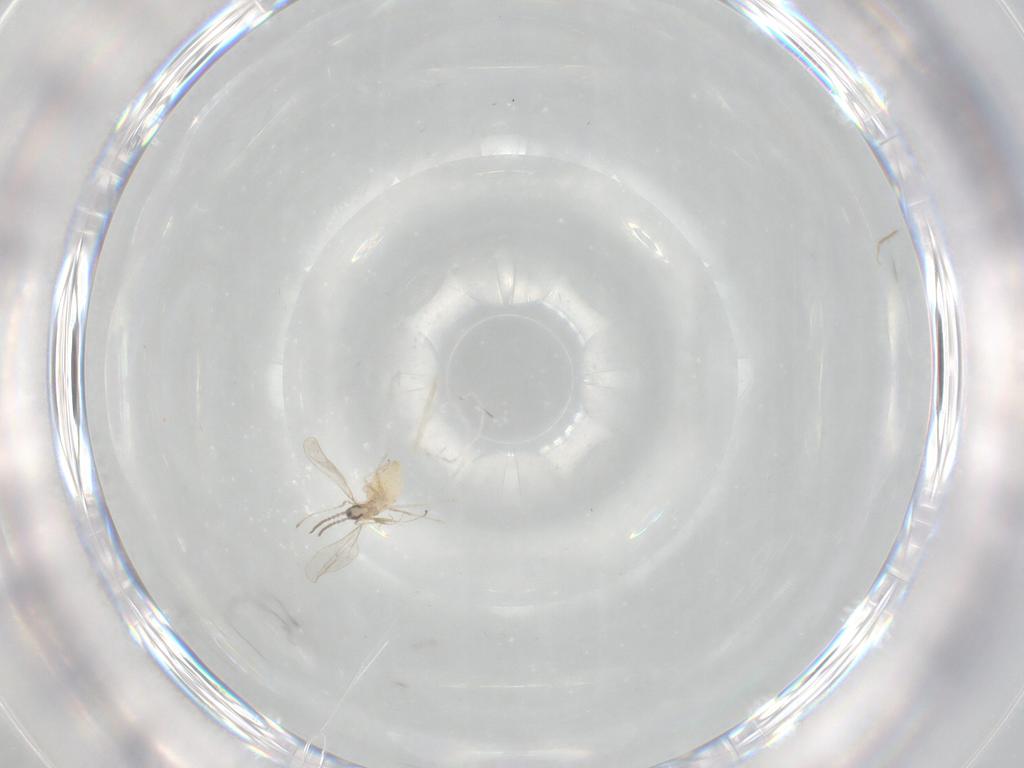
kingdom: Animalia
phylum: Arthropoda
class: Insecta
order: Diptera
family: Cecidomyiidae
